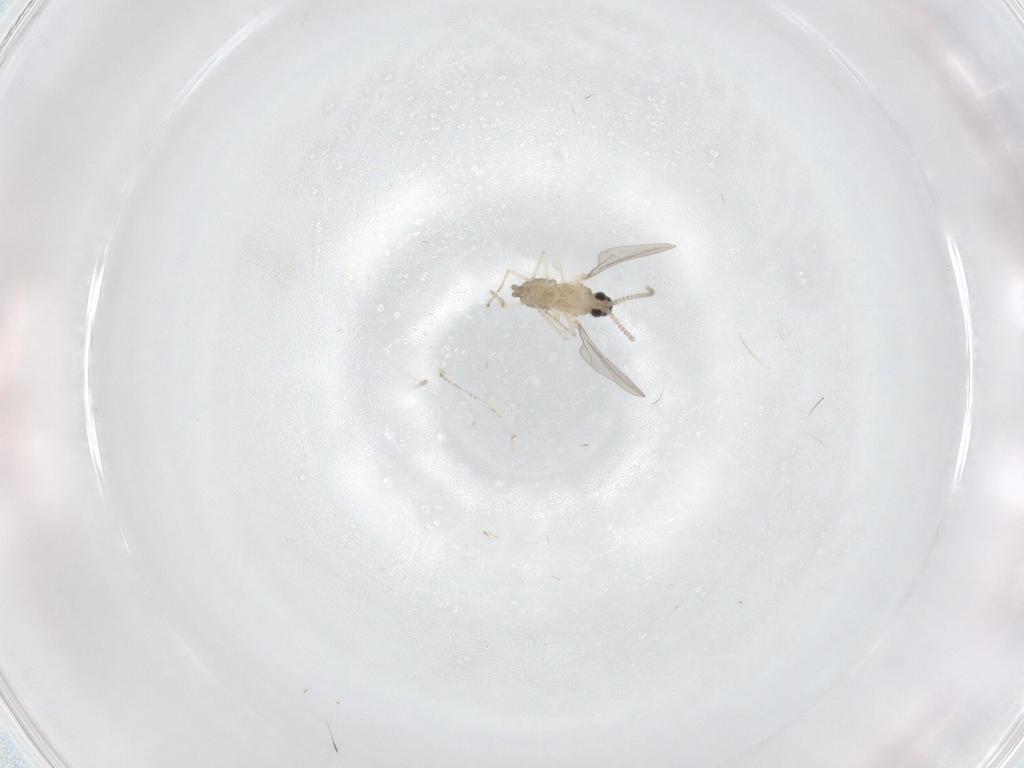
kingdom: Animalia
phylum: Arthropoda
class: Insecta
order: Diptera
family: Cecidomyiidae
